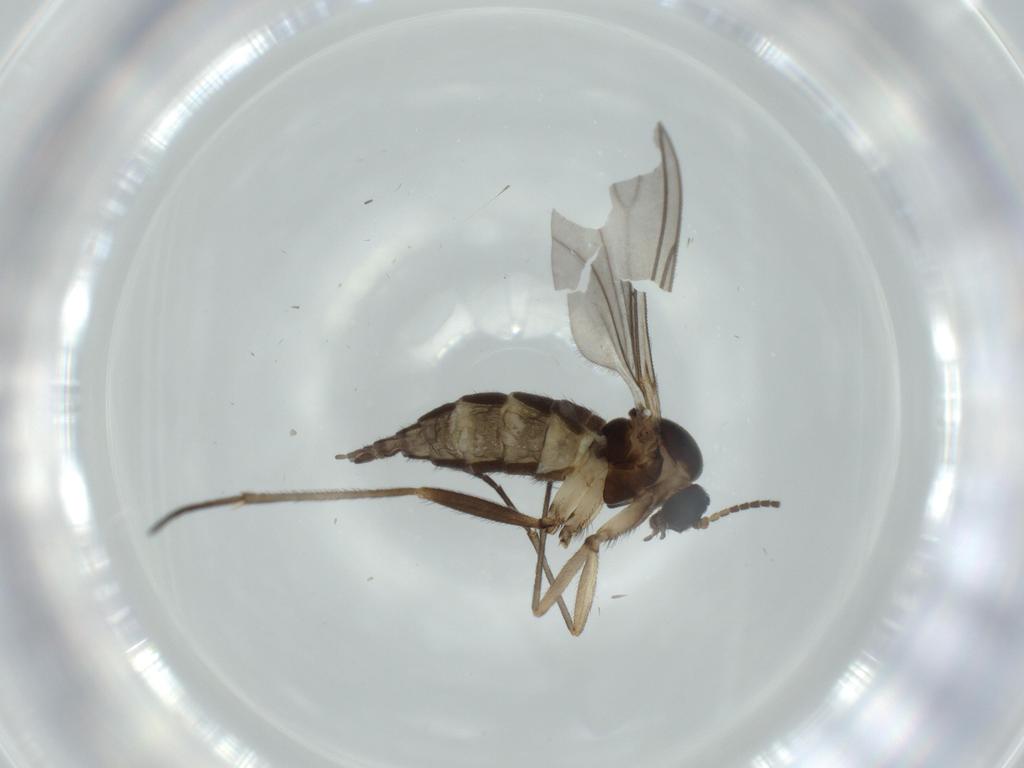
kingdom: Animalia
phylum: Arthropoda
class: Insecta
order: Diptera
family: Sciaridae
